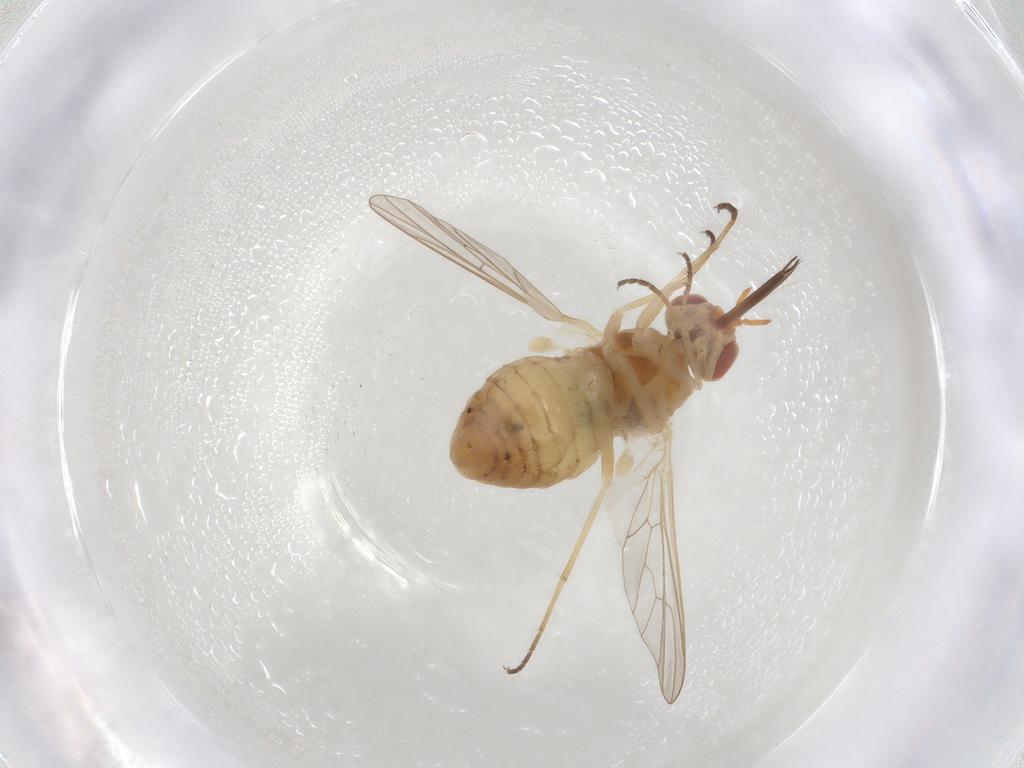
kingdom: Animalia
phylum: Arthropoda
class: Insecta
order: Diptera
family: Bombyliidae
